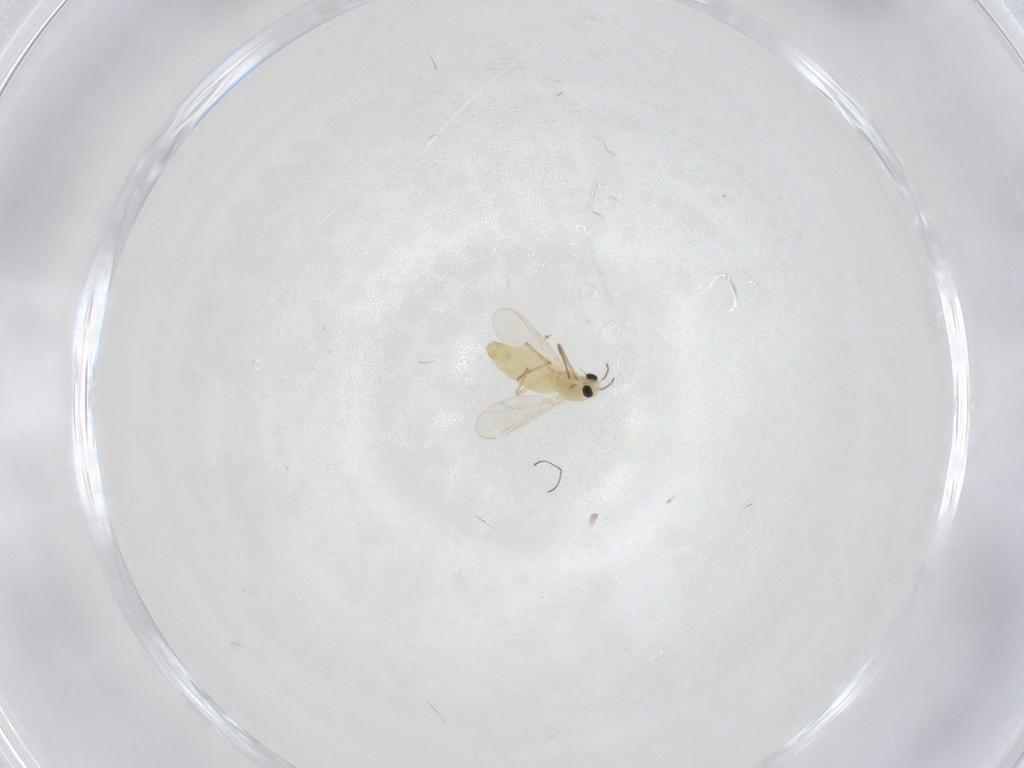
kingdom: Animalia
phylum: Arthropoda
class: Insecta
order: Diptera
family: Chironomidae
